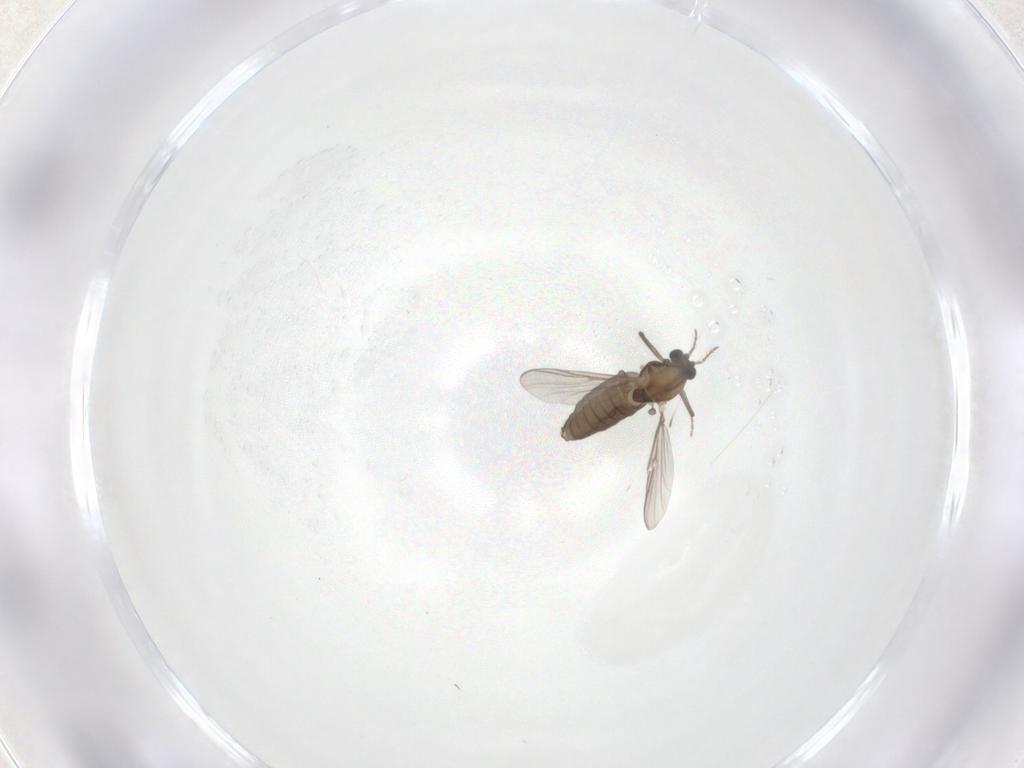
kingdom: Animalia
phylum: Arthropoda
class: Insecta
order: Diptera
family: Chironomidae
